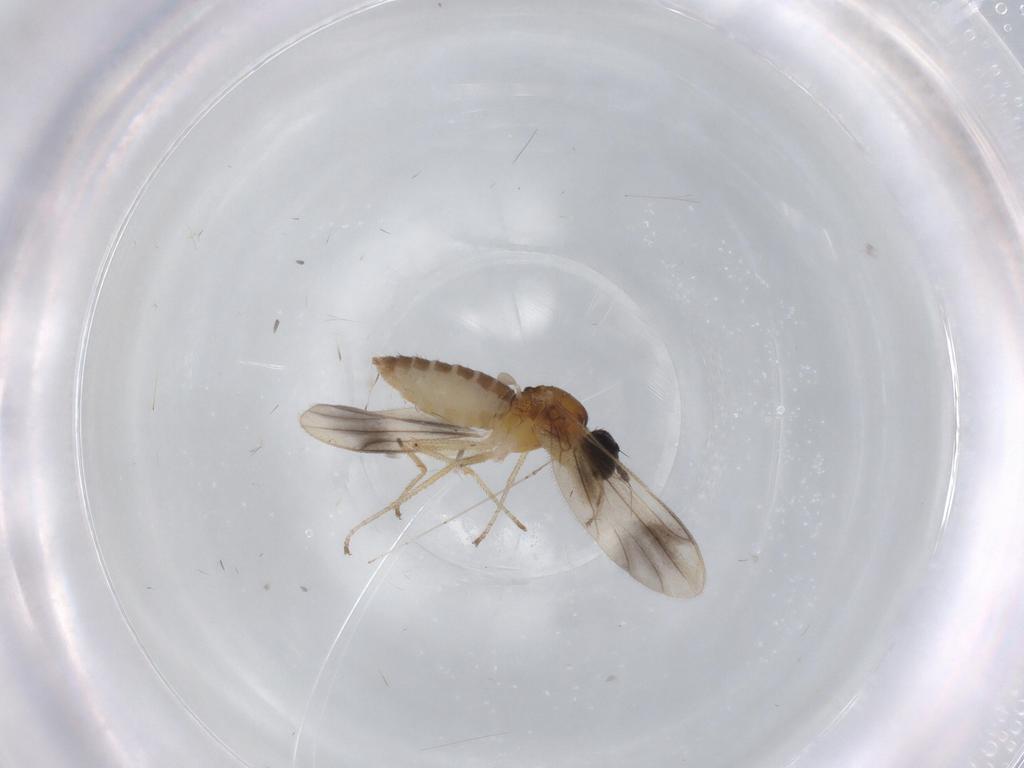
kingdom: Animalia
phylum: Arthropoda
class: Insecta
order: Diptera
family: Empididae
